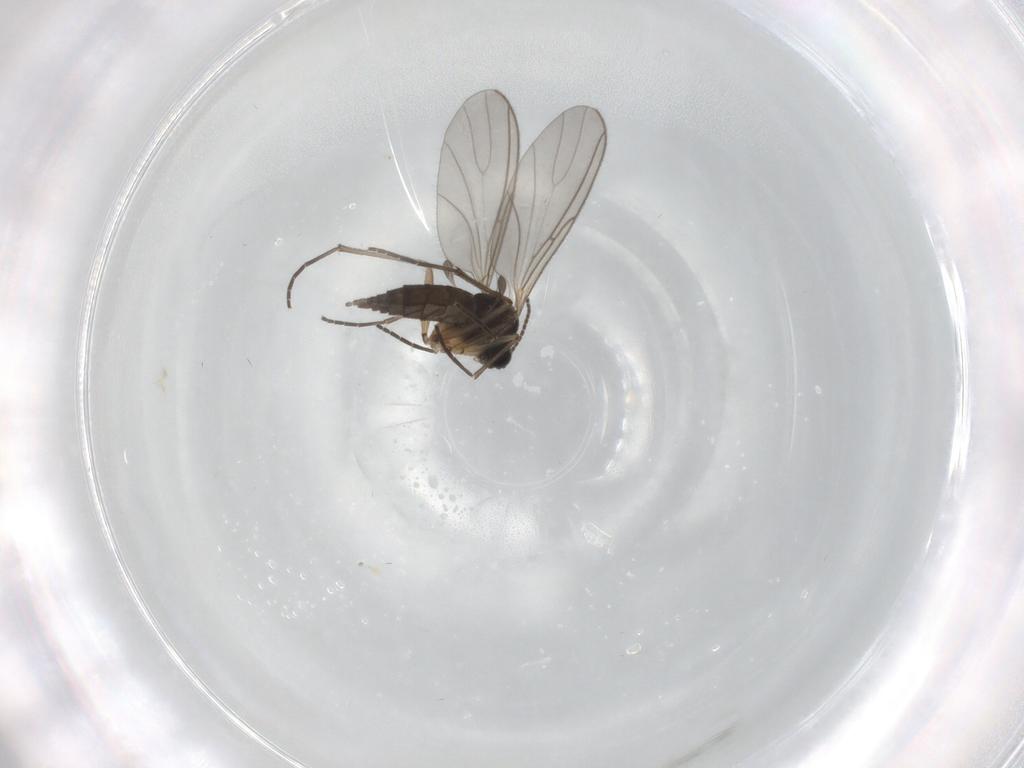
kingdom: Animalia
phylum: Arthropoda
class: Insecta
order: Diptera
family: Sciaridae
